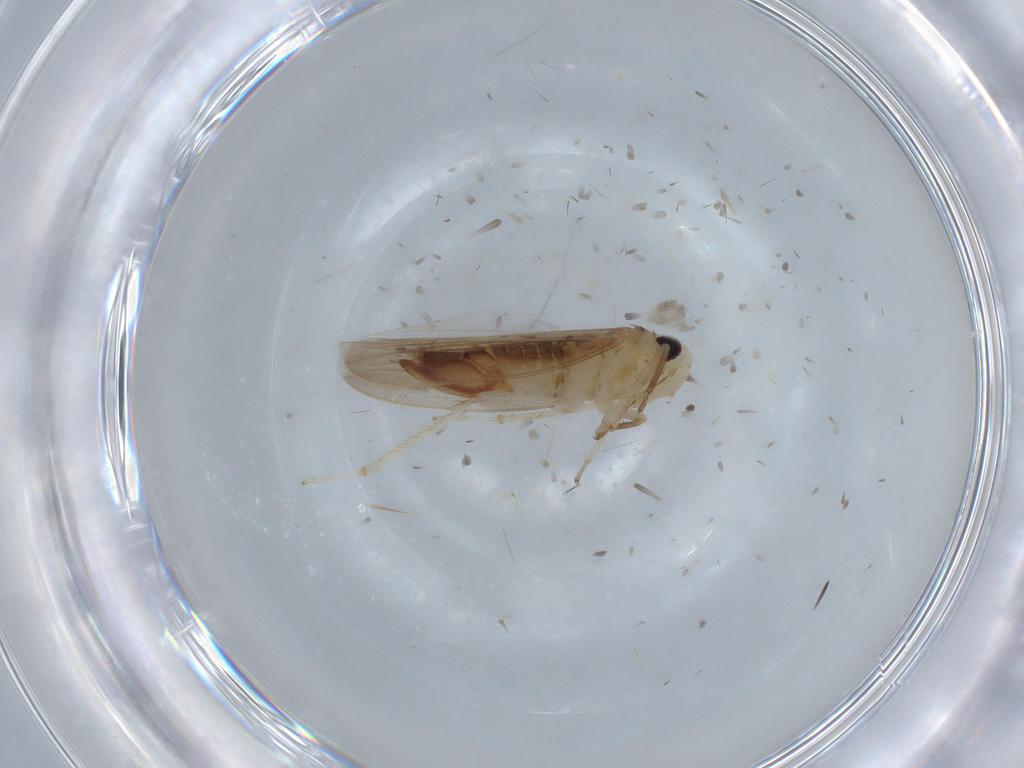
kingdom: Animalia
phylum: Arthropoda
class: Insecta
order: Hemiptera
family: Cicadellidae
